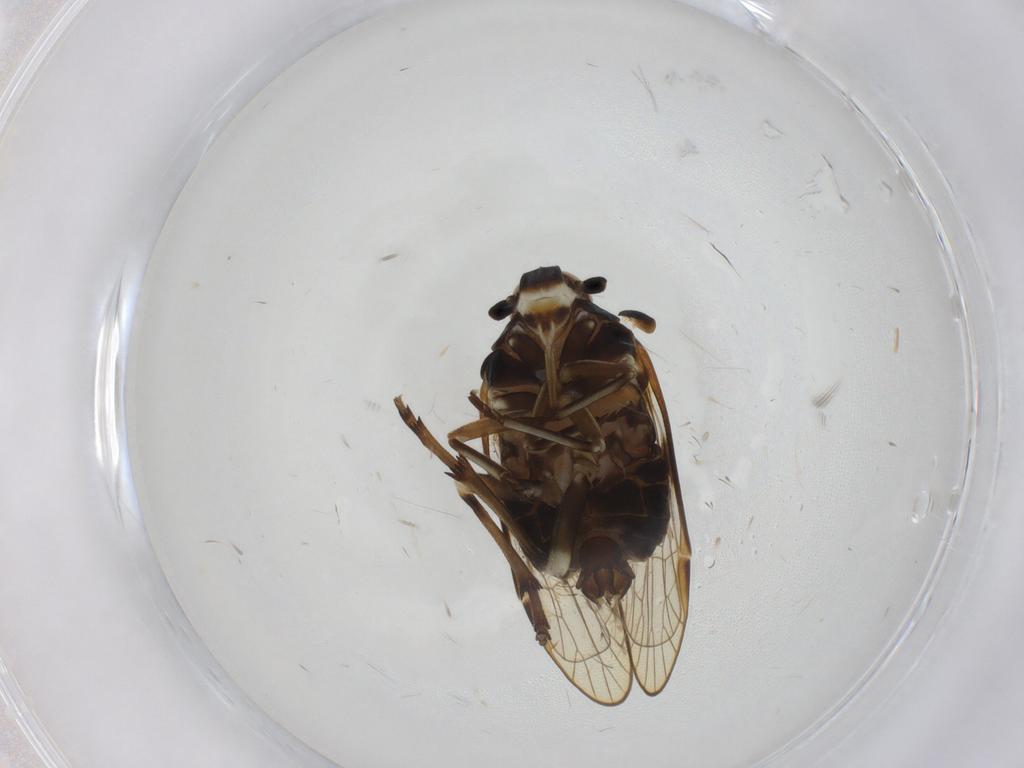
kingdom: Animalia
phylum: Arthropoda
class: Insecta
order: Hemiptera
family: Kinnaridae
